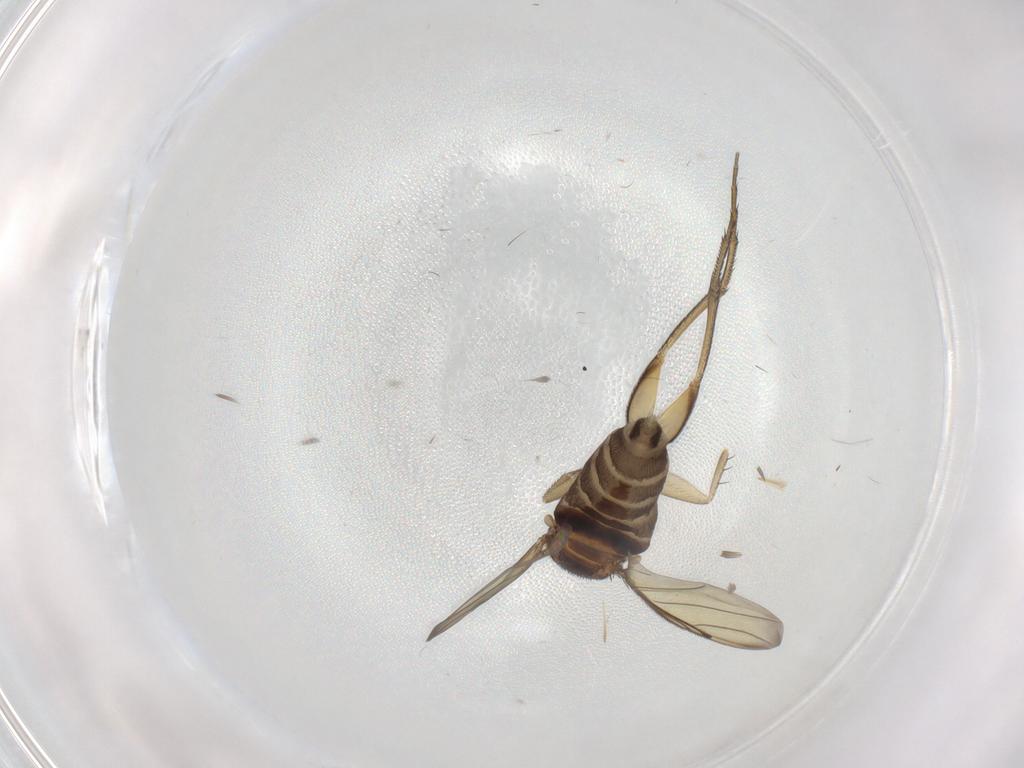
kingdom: Animalia
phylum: Arthropoda
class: Insecta
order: Diptera
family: Phoridae
